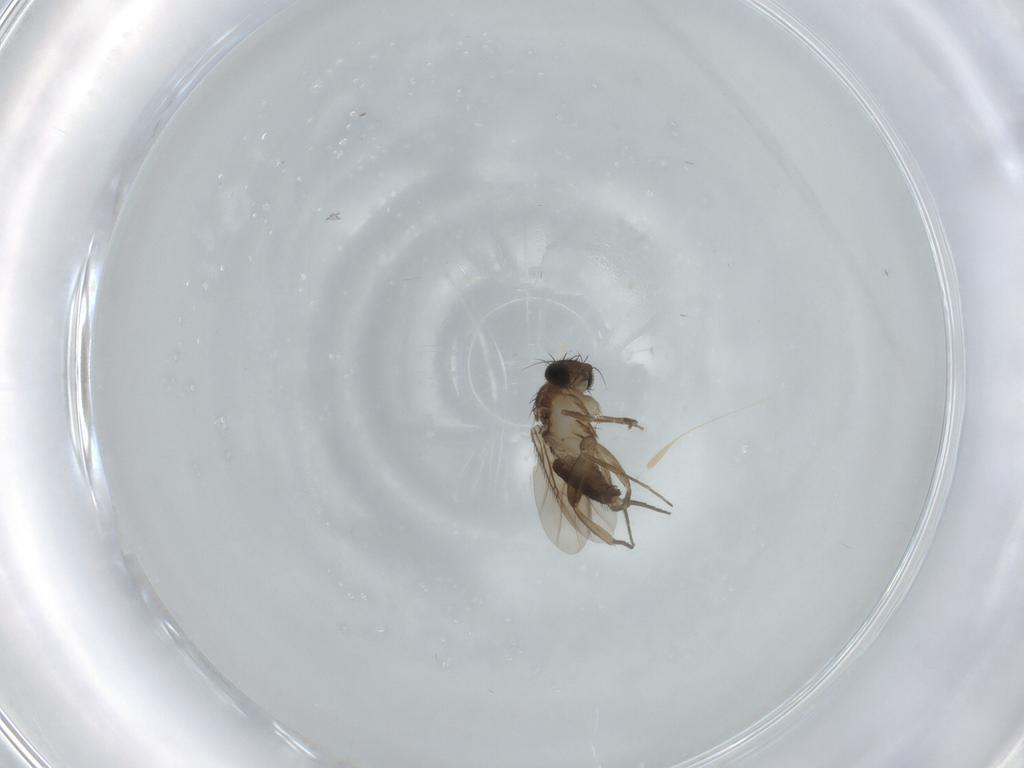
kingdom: Animalia
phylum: Arthropoda
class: Insecta
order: Diptera
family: Phoridae
